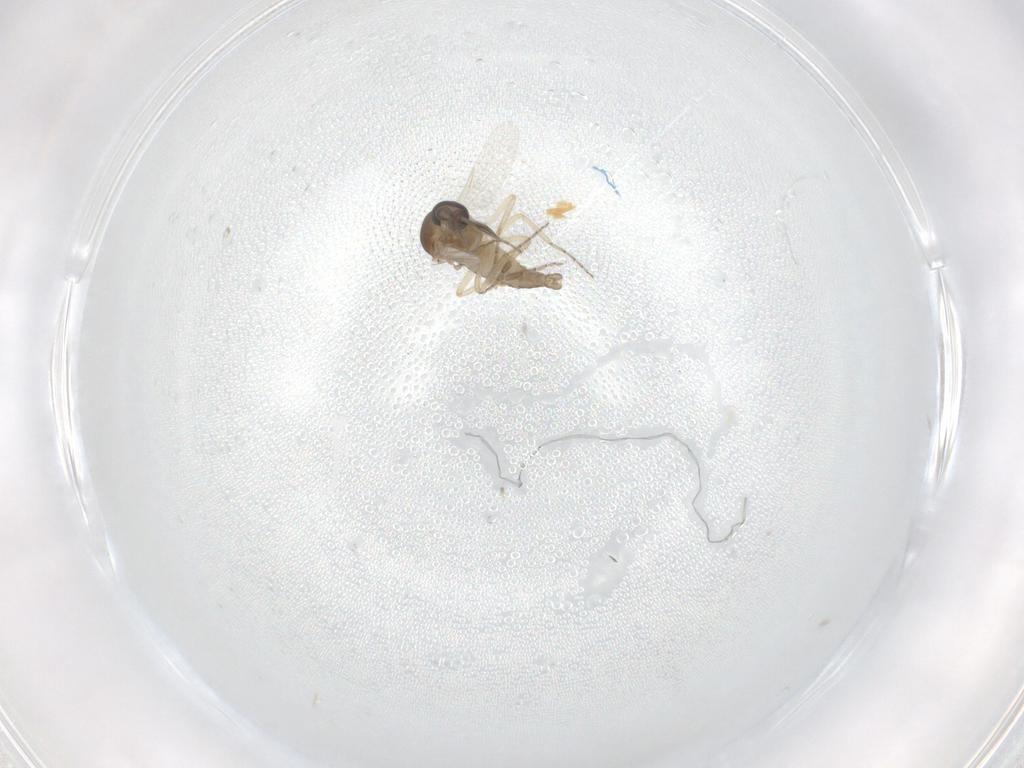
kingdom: Animalia
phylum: Arthropoda
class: Insecta
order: Diptera
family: Ceratopogonidae
